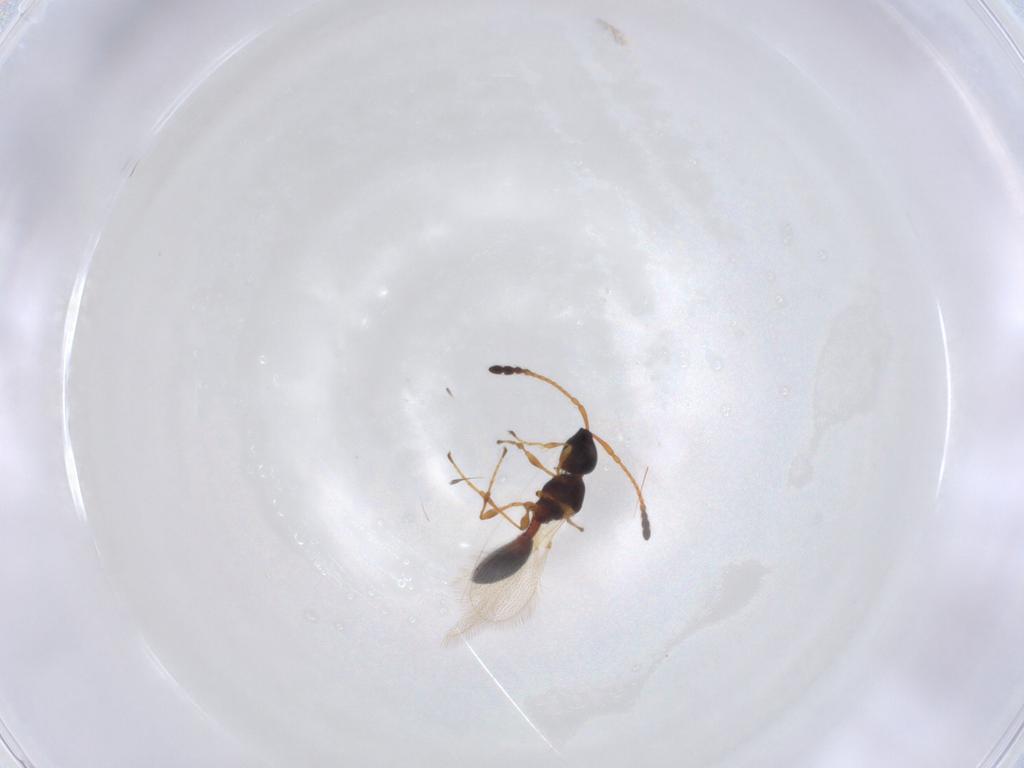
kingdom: Animalia
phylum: Arthropoda
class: Insecta
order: Hymenoptera
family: Diapriidae
